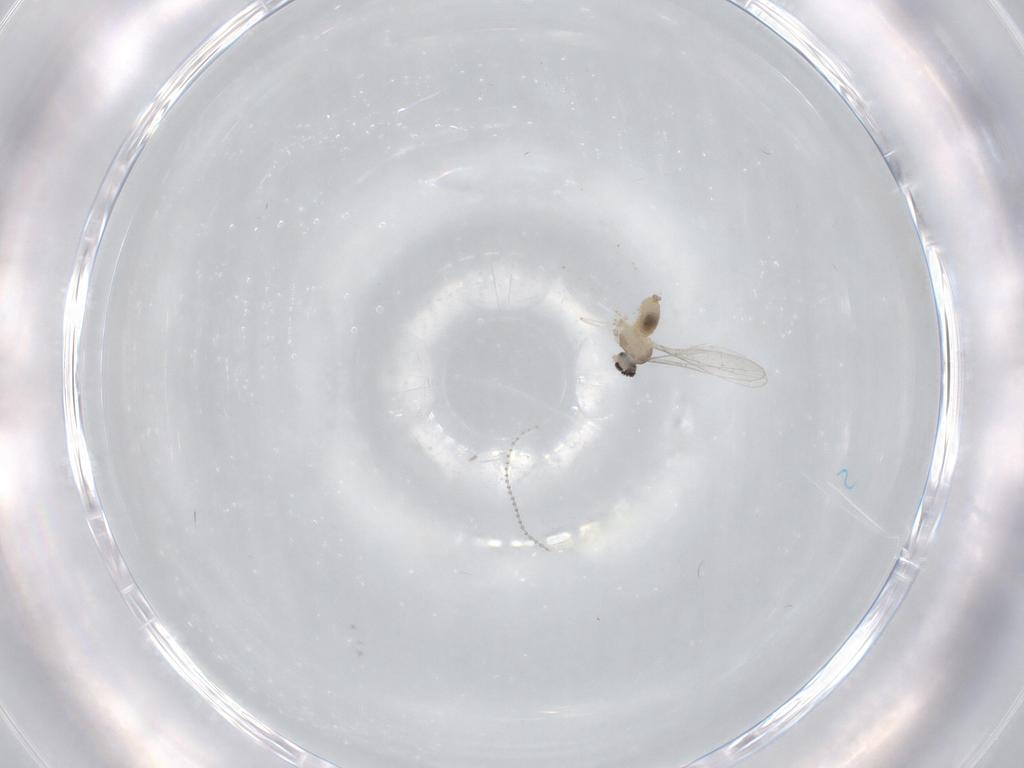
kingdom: Animalia
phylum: Arthropoda
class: Insecta
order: Diptera
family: Cecidomyiidae
